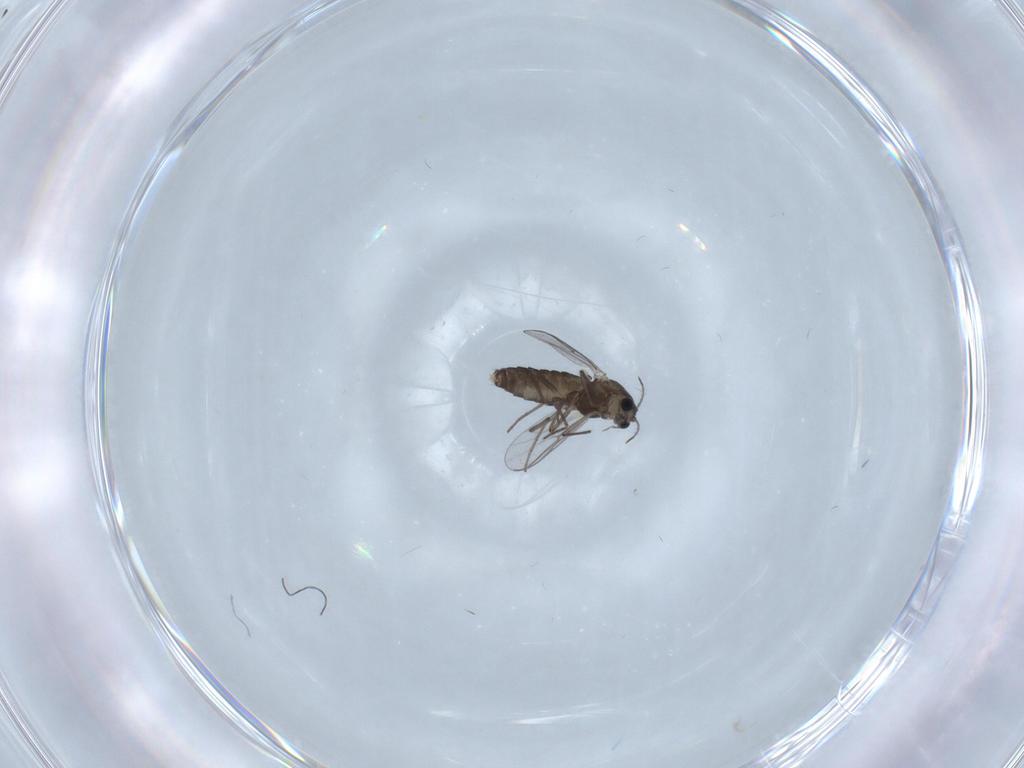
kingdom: Animalia
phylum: Arthropoda
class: Insecta
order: Diptera
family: Chironomidae
